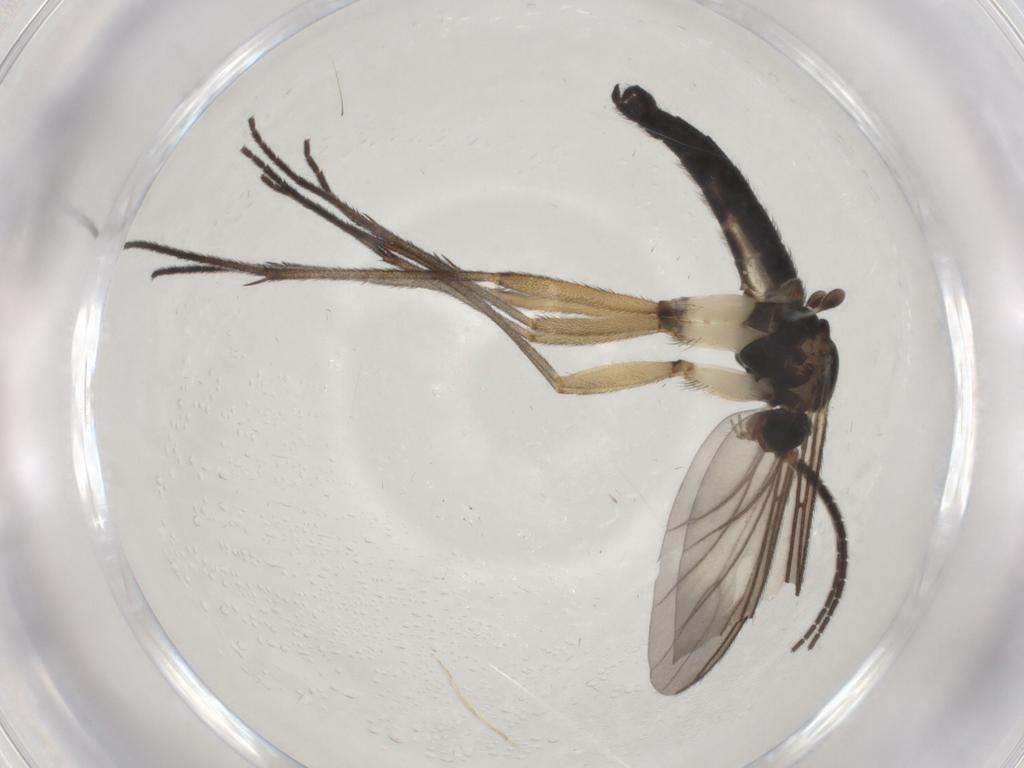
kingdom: Animalia
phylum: Arthropoda
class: Insecta
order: Diptera
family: Sciaridae
